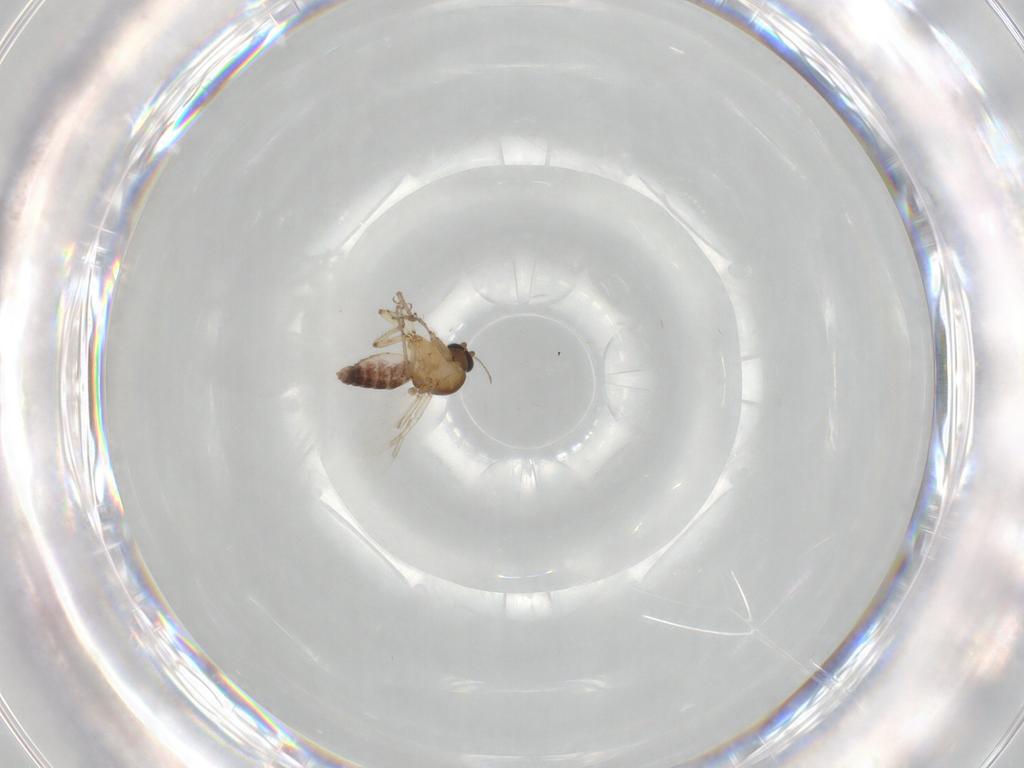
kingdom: Animalia
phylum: Arthropoda
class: Insecta
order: Diptera
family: Ceratopogonidae
